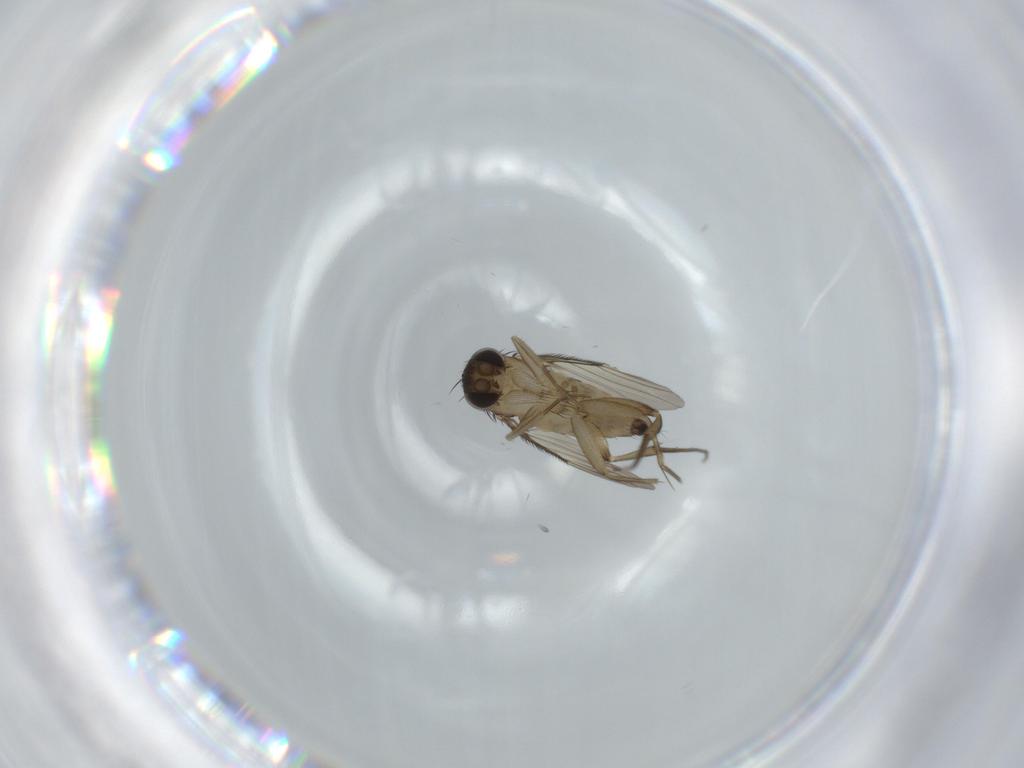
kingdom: Animalia
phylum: Arthropoda
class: Insecta
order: Diptera
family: Phoridae
